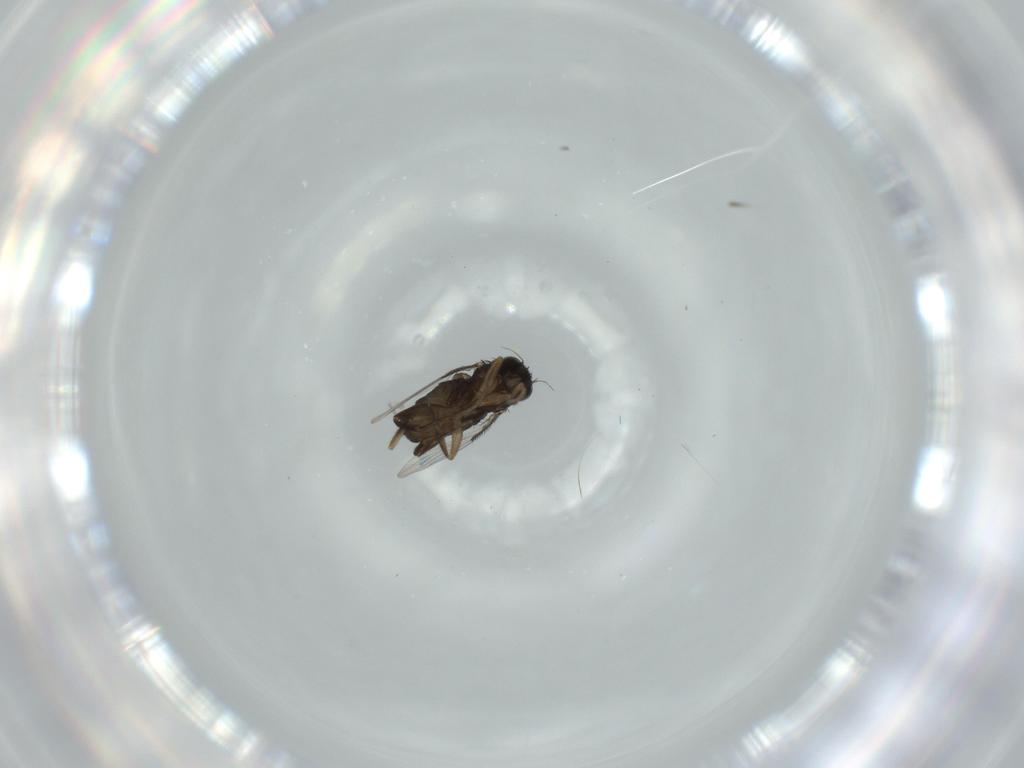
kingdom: Animalia
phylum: Arthropoda
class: Insecta
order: Diptera
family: Phoridae
